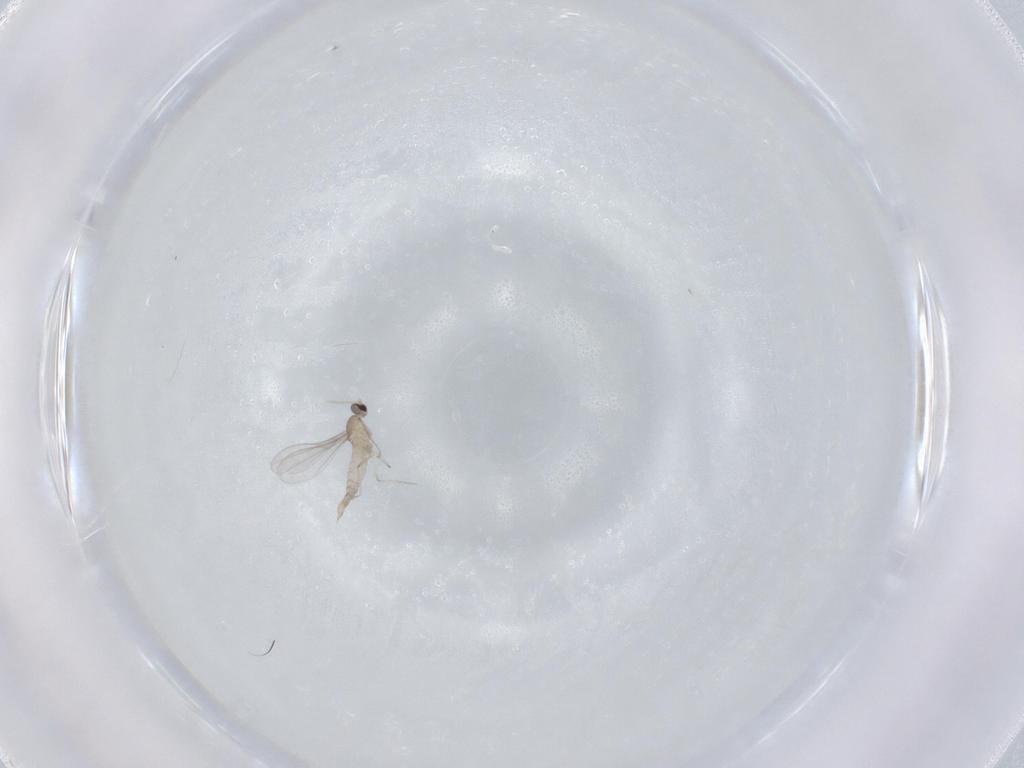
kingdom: Animalia
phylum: Arthropoda
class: Insecta
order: Diptera
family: Cecidomyiidae
